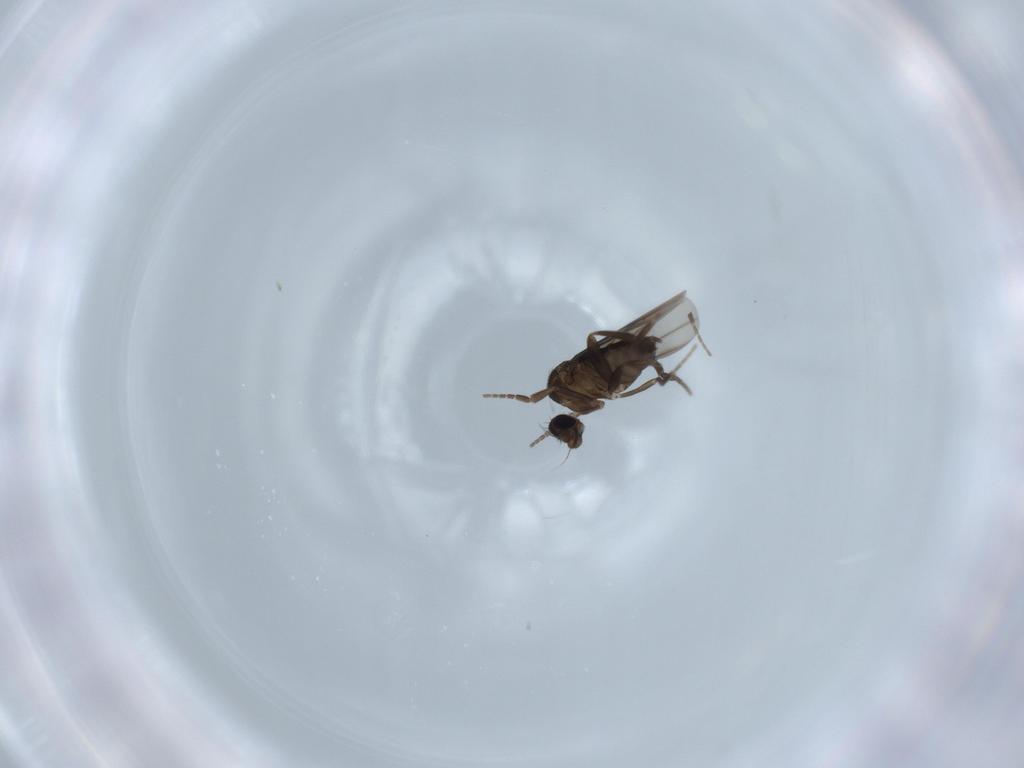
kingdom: Animalia
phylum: Arthropoda
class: Insecta
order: Diptera
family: Phoridae
